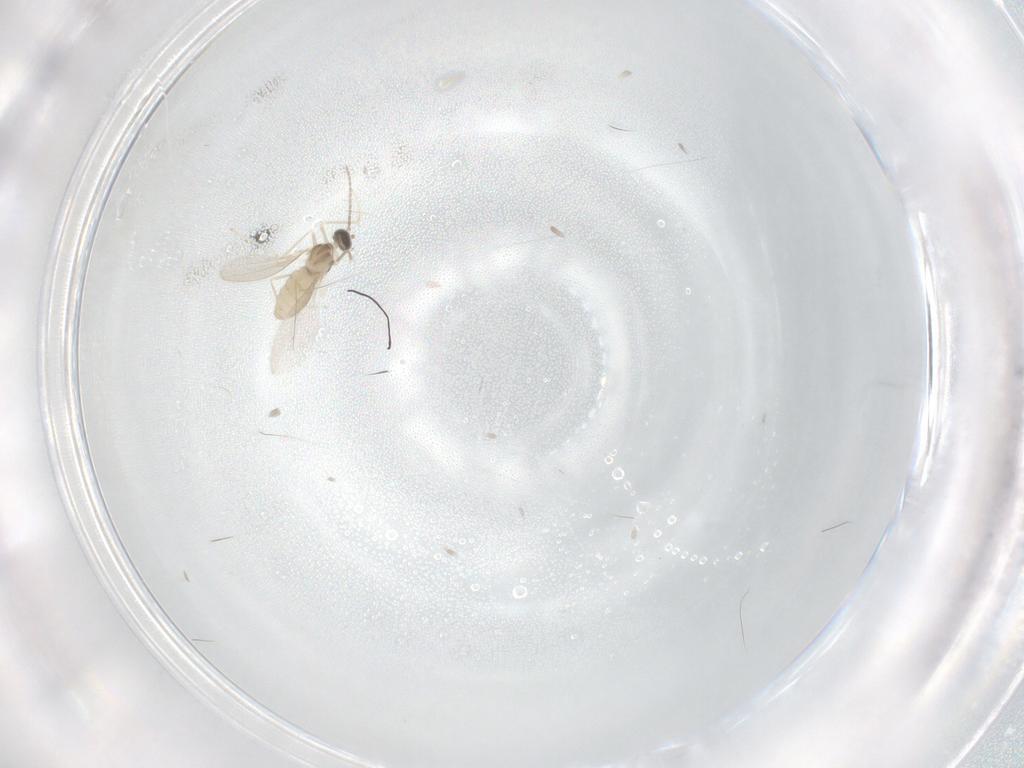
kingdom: Animalia
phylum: Arthropoda
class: Insecta
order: Diptera
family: Cecidomyiidae
